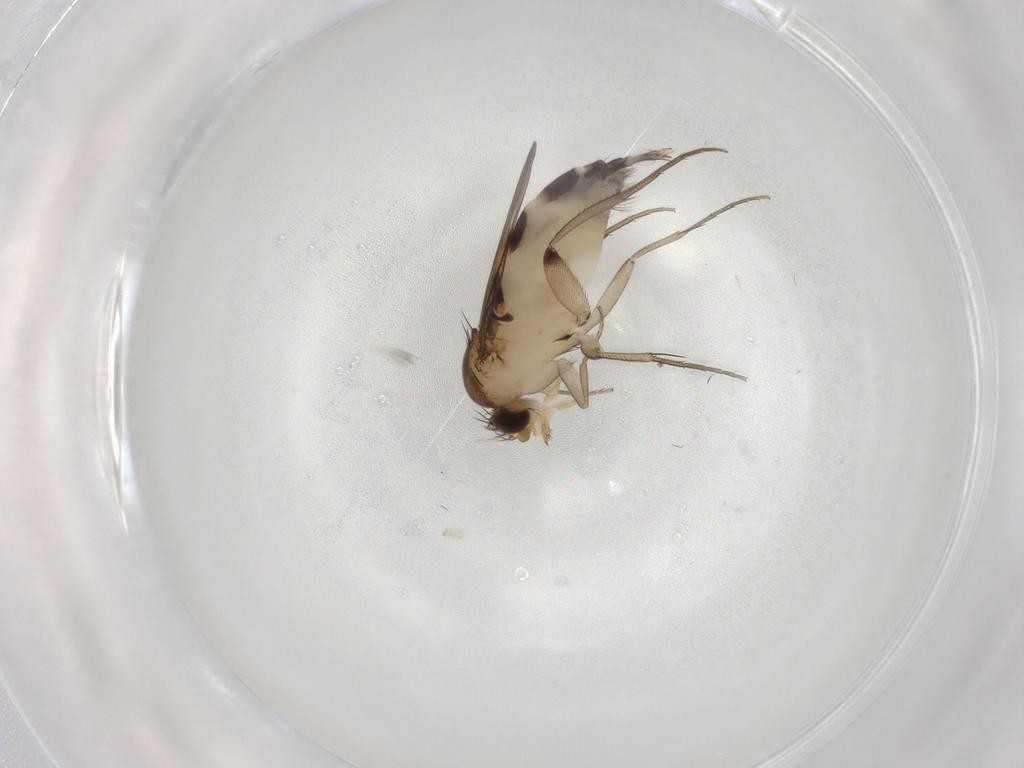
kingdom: Animalia
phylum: Arthropoda
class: Insecta
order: Diptera
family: Phoridae
